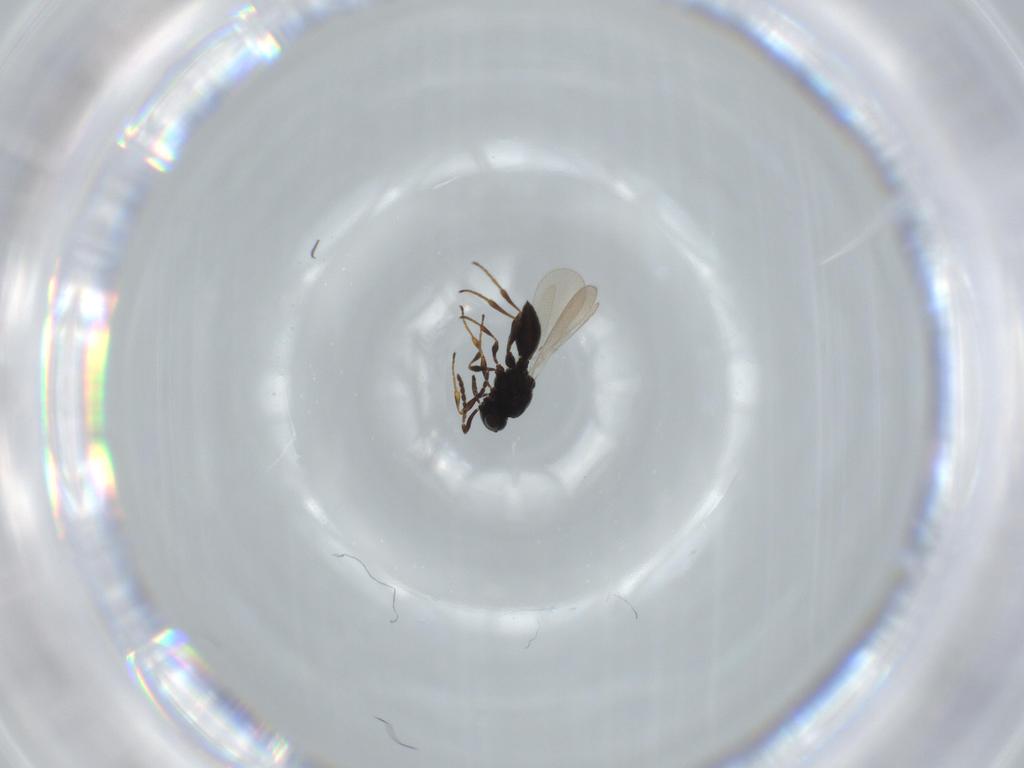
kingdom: Animalia
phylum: Arthropoda
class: Insecta
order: Hymenoptera
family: Platygastridae
